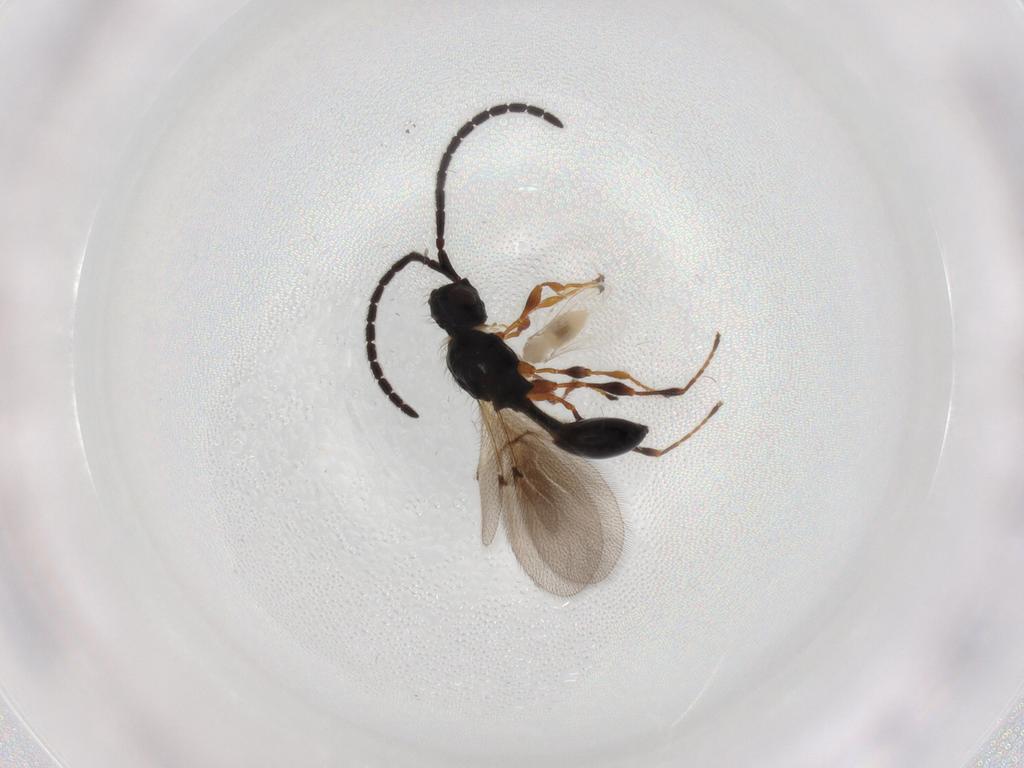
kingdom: Animalia
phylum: Arthropoda
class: Insecta
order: Hymenoptera
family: Diapriidae
